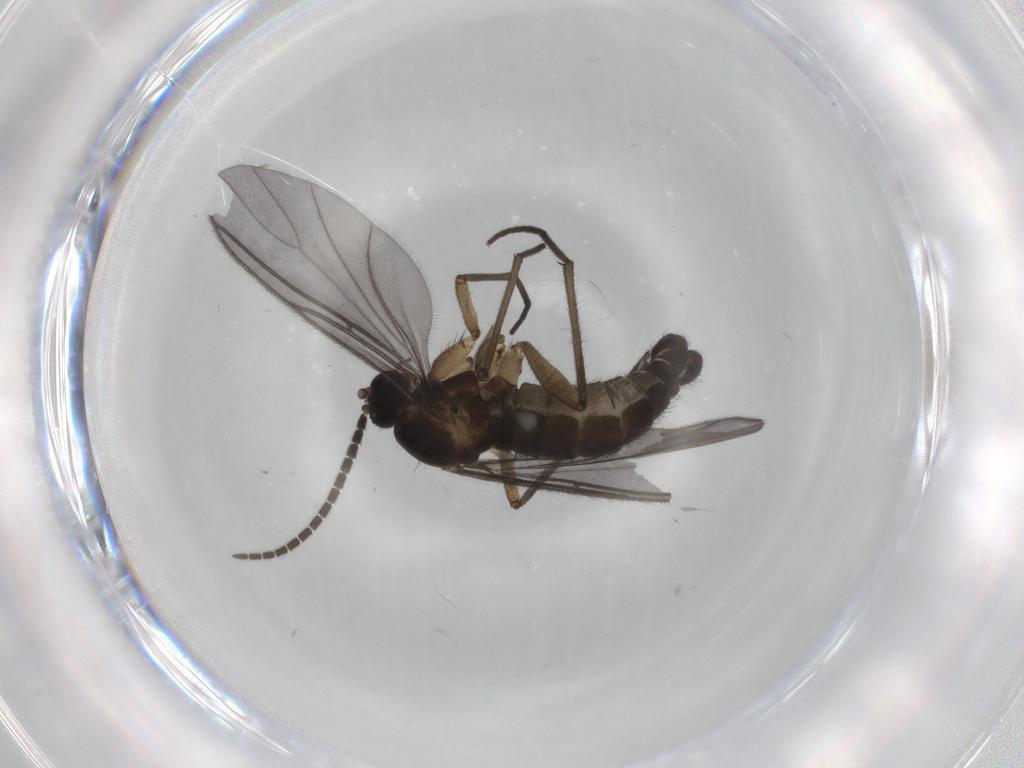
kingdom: Animalia
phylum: Arthropoda
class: Insecta
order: Diptera
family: Sciaridae
